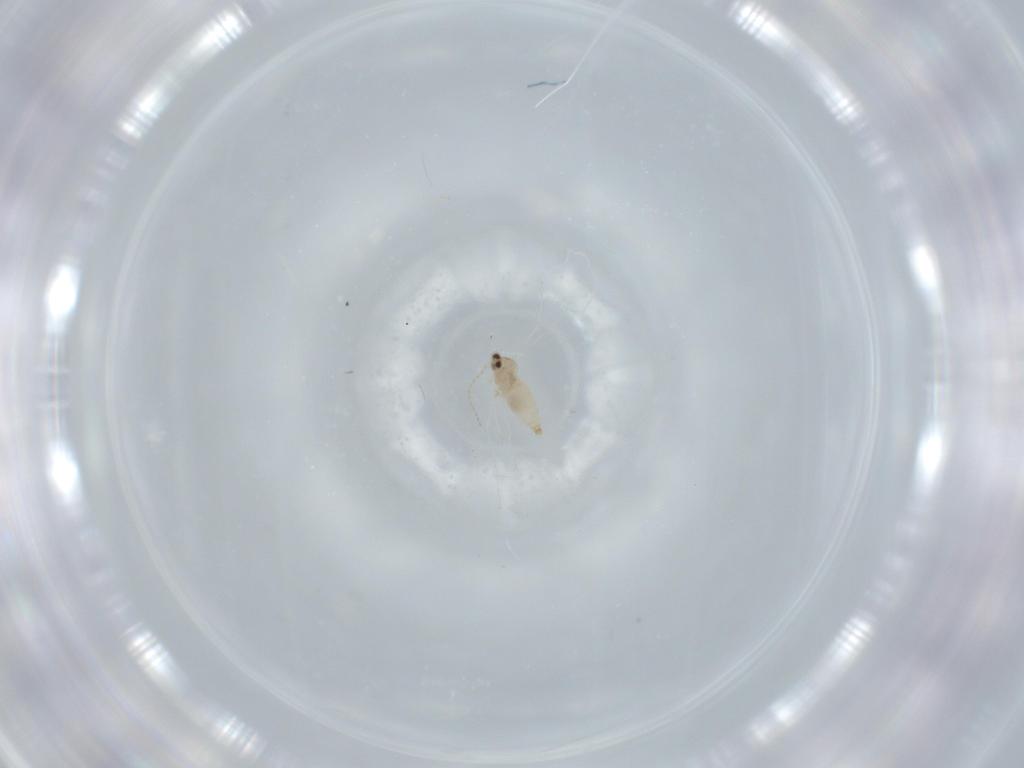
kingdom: Animalia
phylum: Arthropoda
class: Insecta
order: Diptera
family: Cecidomyiidae
